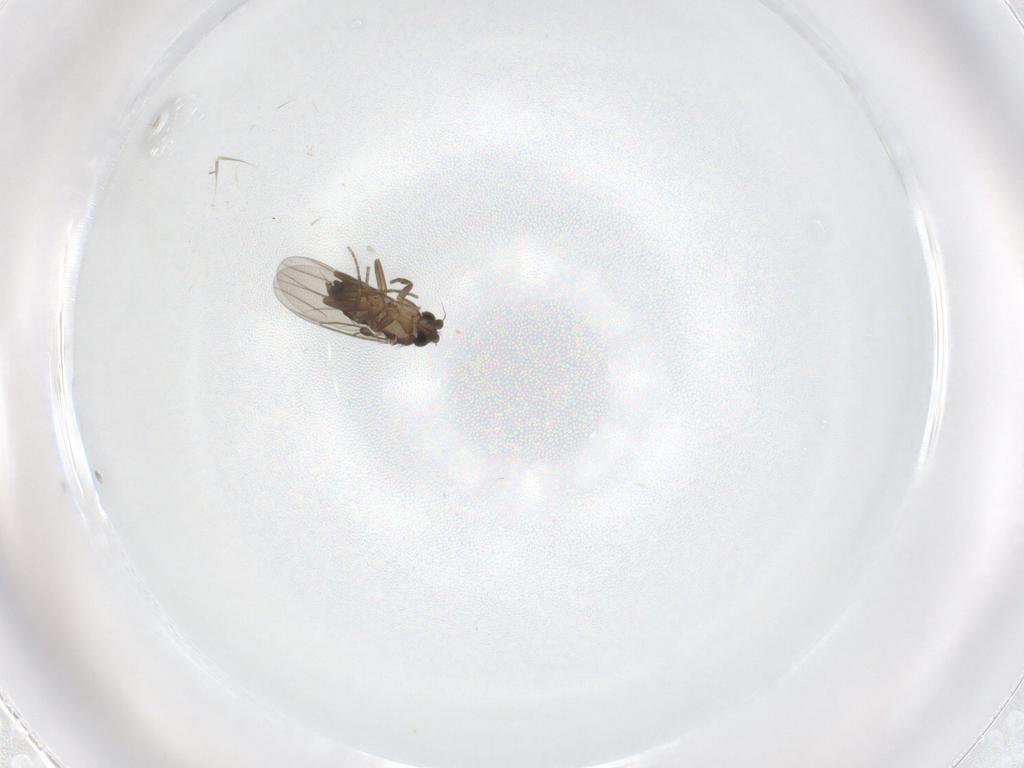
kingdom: Animalia
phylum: Arthropoda
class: Insecta
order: Diptera
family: Phoridae
